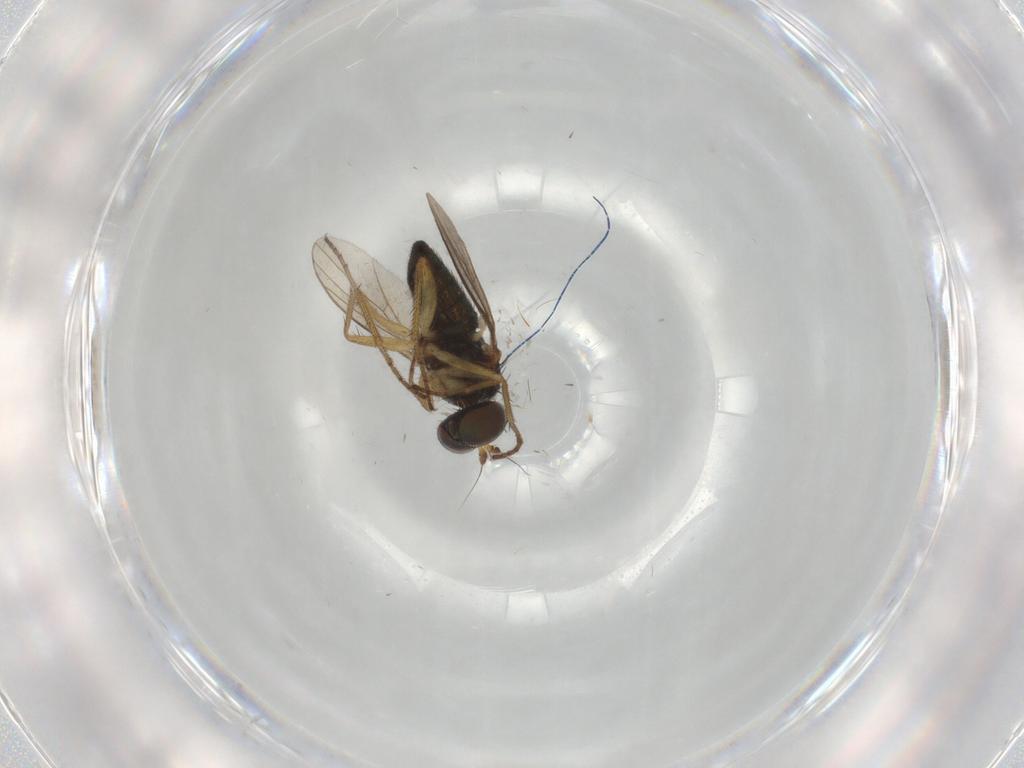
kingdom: Animalia
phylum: Arthropoda
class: Insecta
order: Diptera
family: Dolichopodidae
